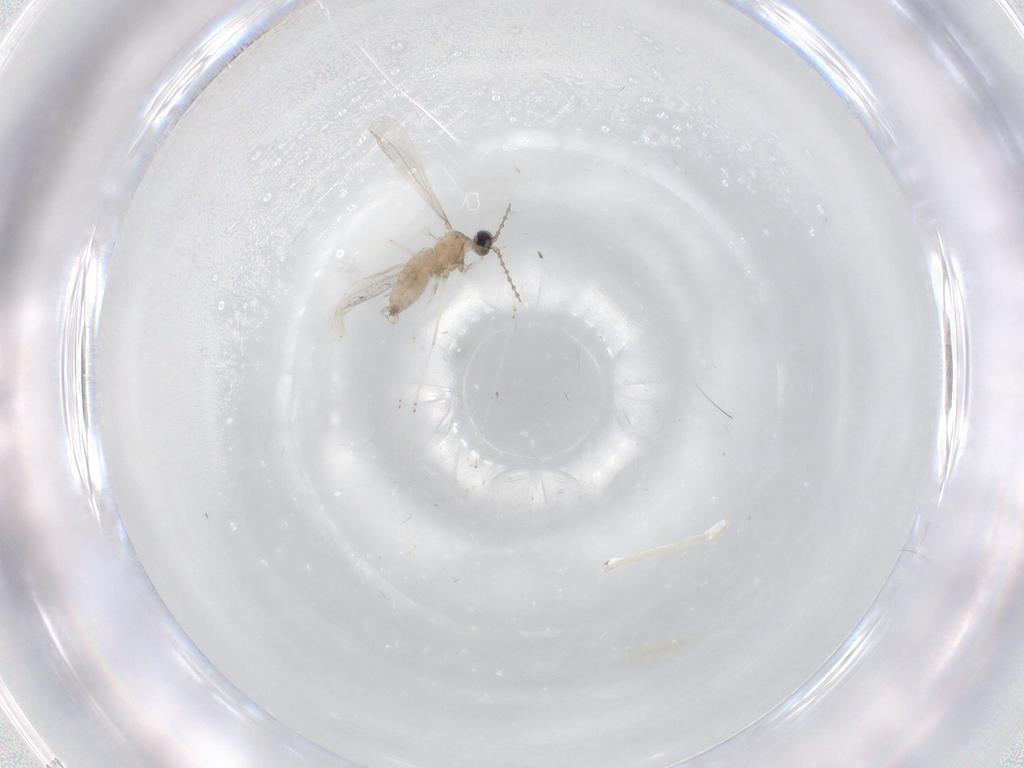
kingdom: Animalia
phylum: Arthropoda
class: Insecta
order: Diptera
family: Cecidomyiidae
